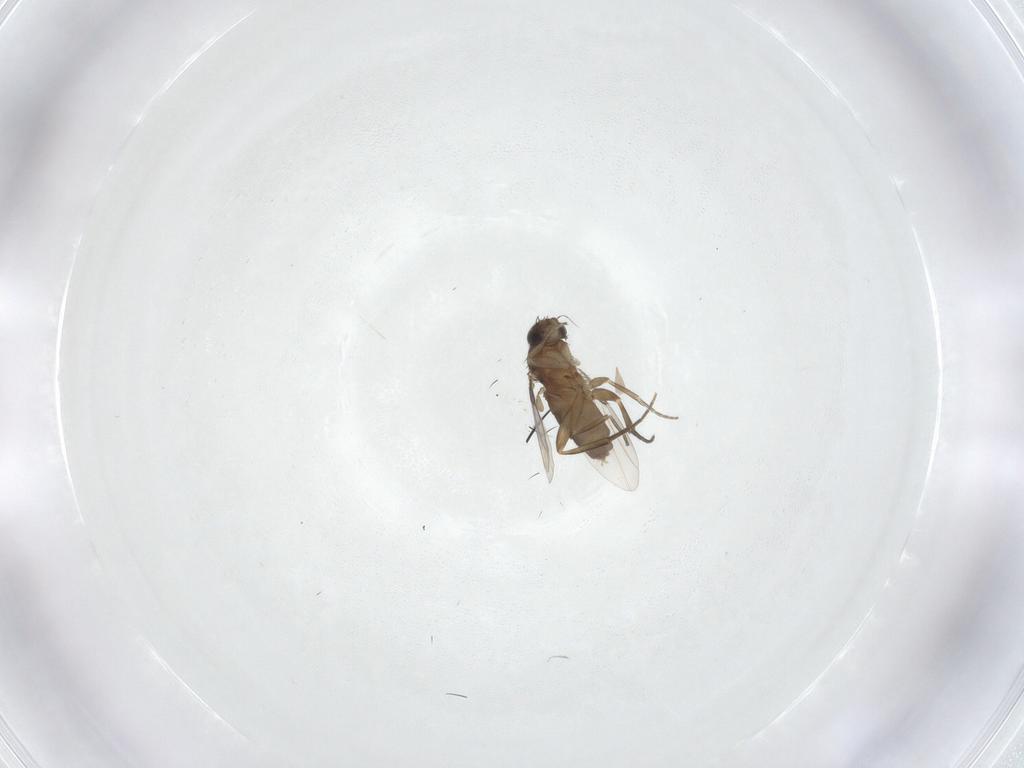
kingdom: Animalia
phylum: Arthropoda
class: Insecta
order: Diptera
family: Phoridae
